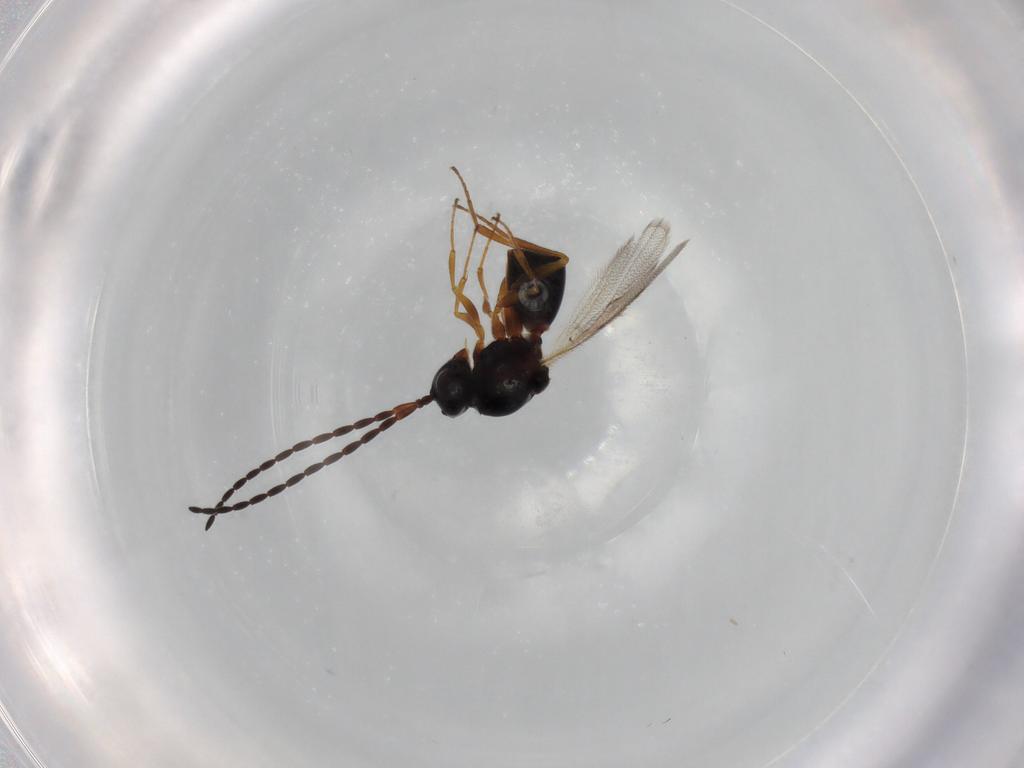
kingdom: Animalia
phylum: Arthropoda
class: Insecta
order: Hymenoptera
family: Figitidae
